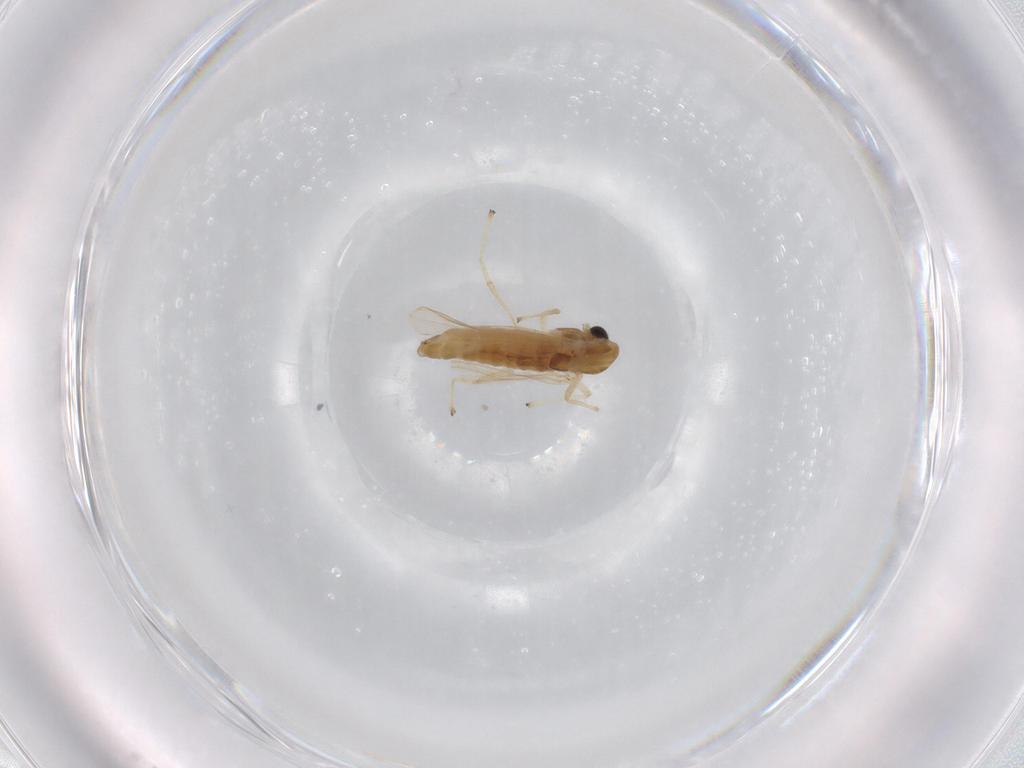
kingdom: Animalia
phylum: Arthropoda
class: Insecta
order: Diptera
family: Chironomidae
